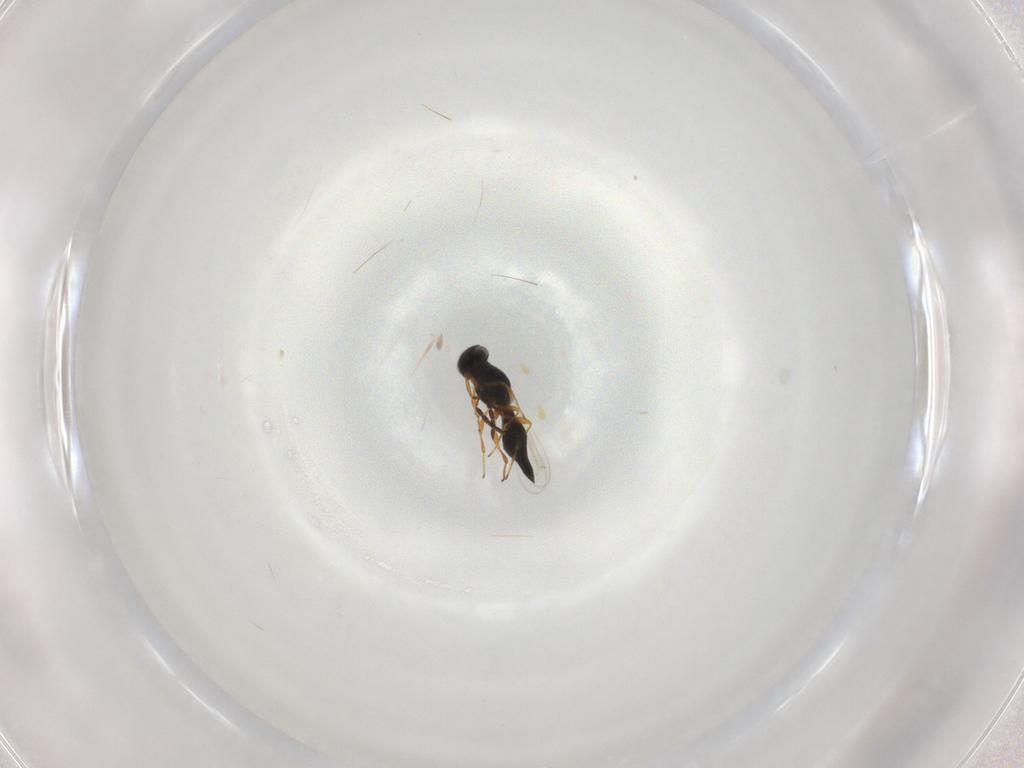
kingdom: Animalia
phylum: Arthropoda
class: Insecta
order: Hymenoptera
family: Platygastridae
